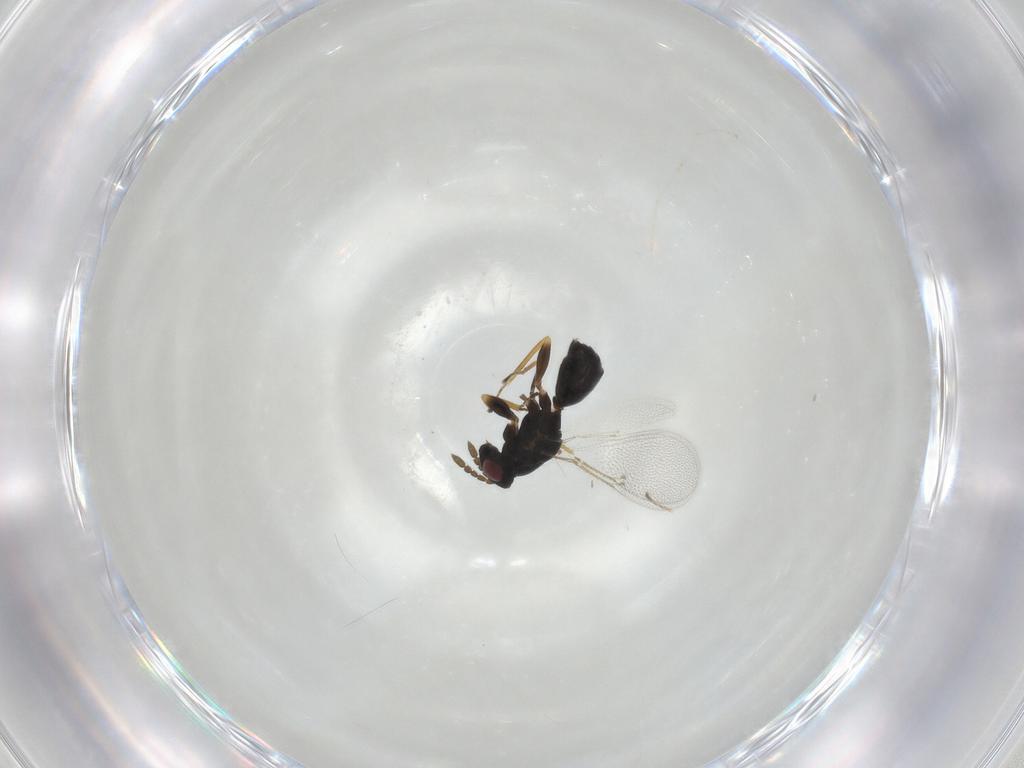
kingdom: Animalia
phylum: Arthropoda
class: Insecta
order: Hymenoptera
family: Eulophidae
